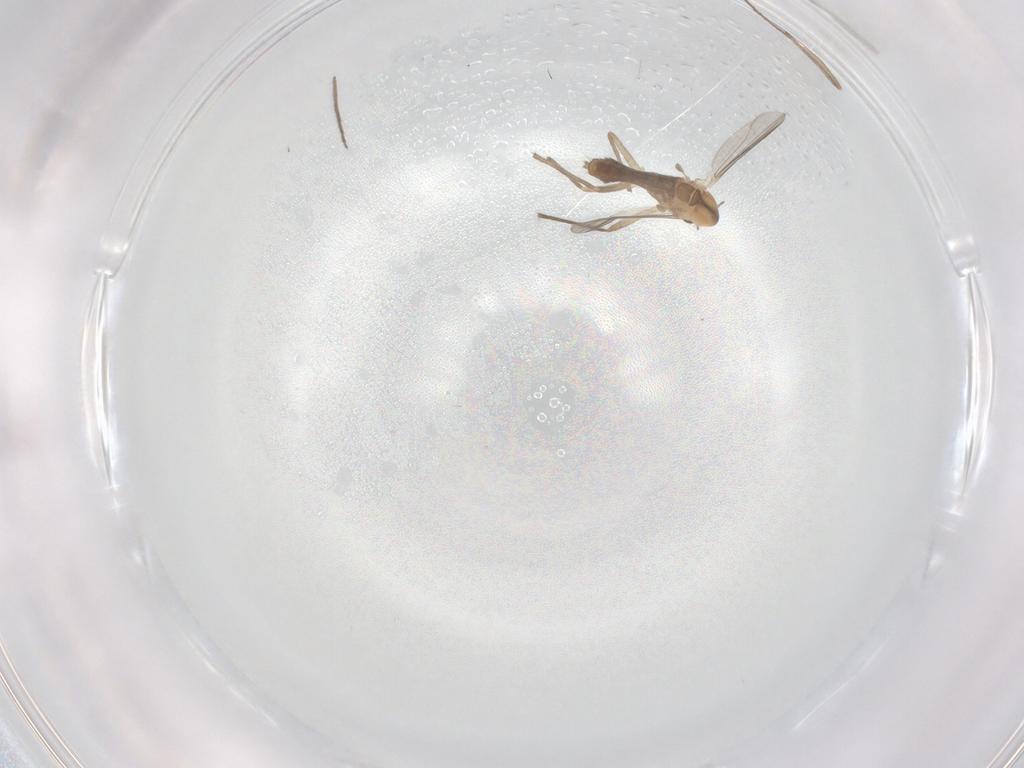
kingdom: Animalia
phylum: Arthropoda
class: Insecta
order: Diptera
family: Chironomidae
